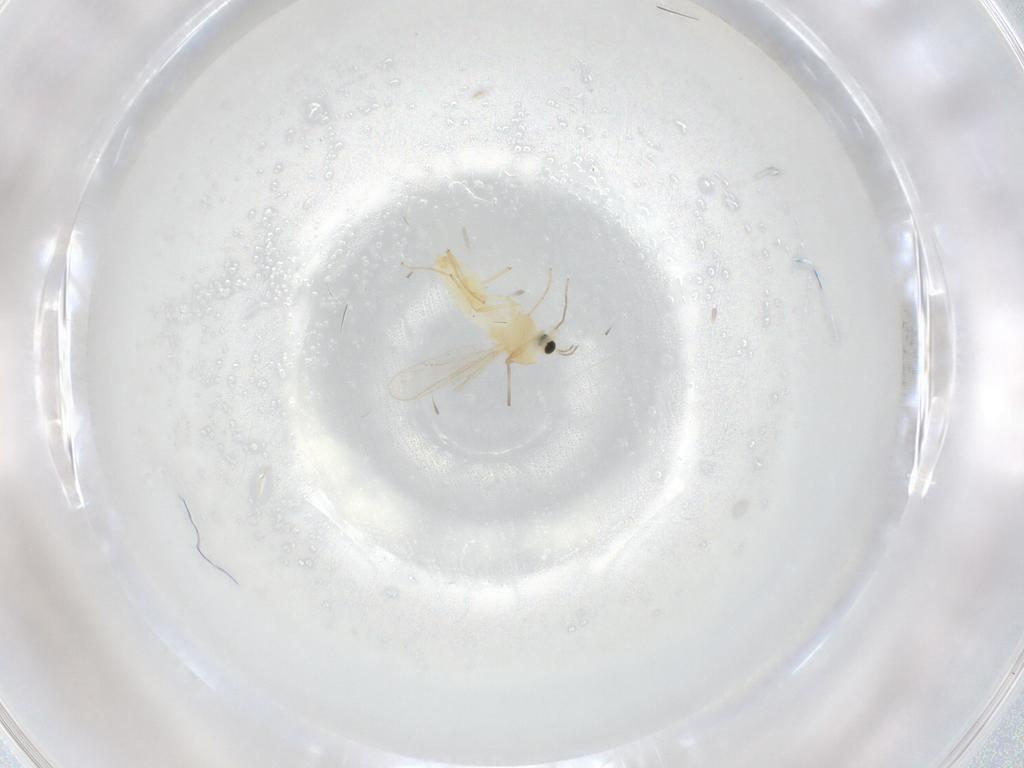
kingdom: Animalia
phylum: Arthropoda
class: Insecta
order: Diptera
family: Chironomidae
